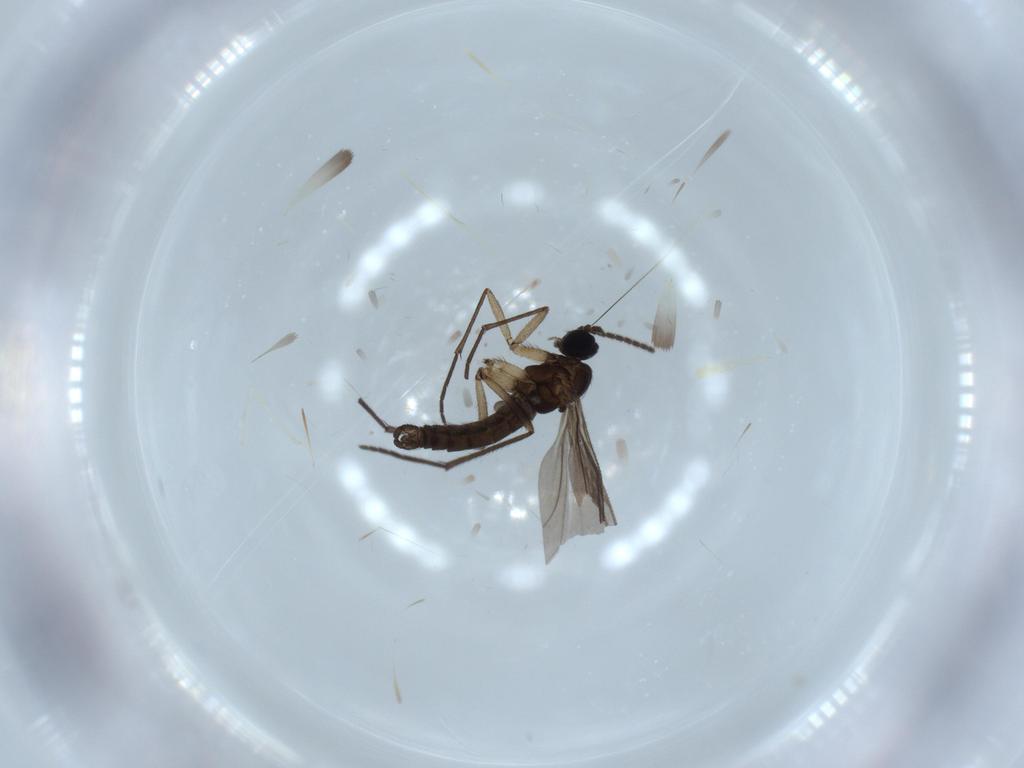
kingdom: Animalia
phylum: Arthropoda
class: Insecta
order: Diptera
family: Sciaridae
